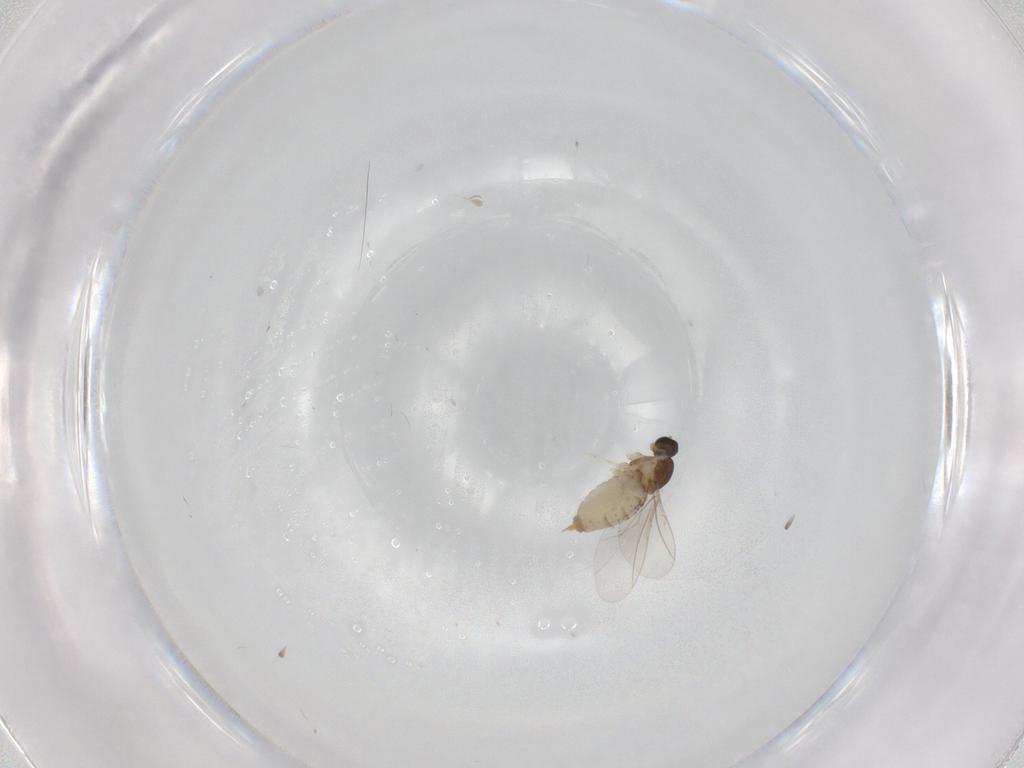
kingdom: Animalia
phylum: Arthropoda
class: Insecta
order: Diptera
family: Cecidomyiidae
